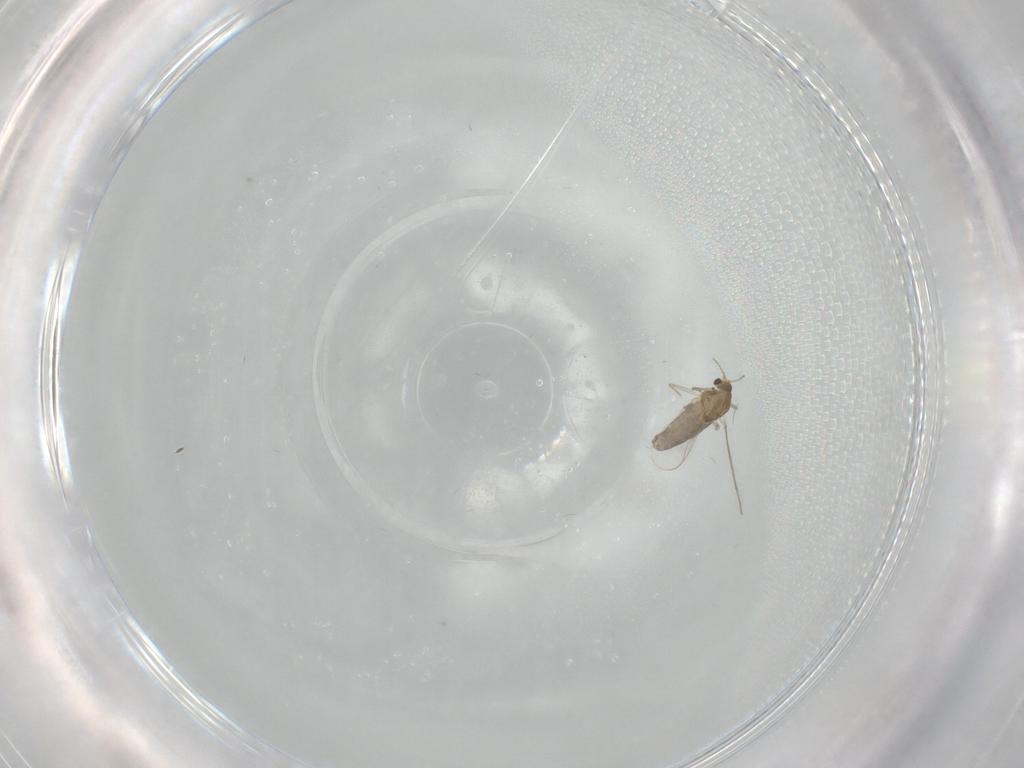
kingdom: Animalia
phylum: Arthropoda
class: Insecta
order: Diptera
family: Chironomidae
